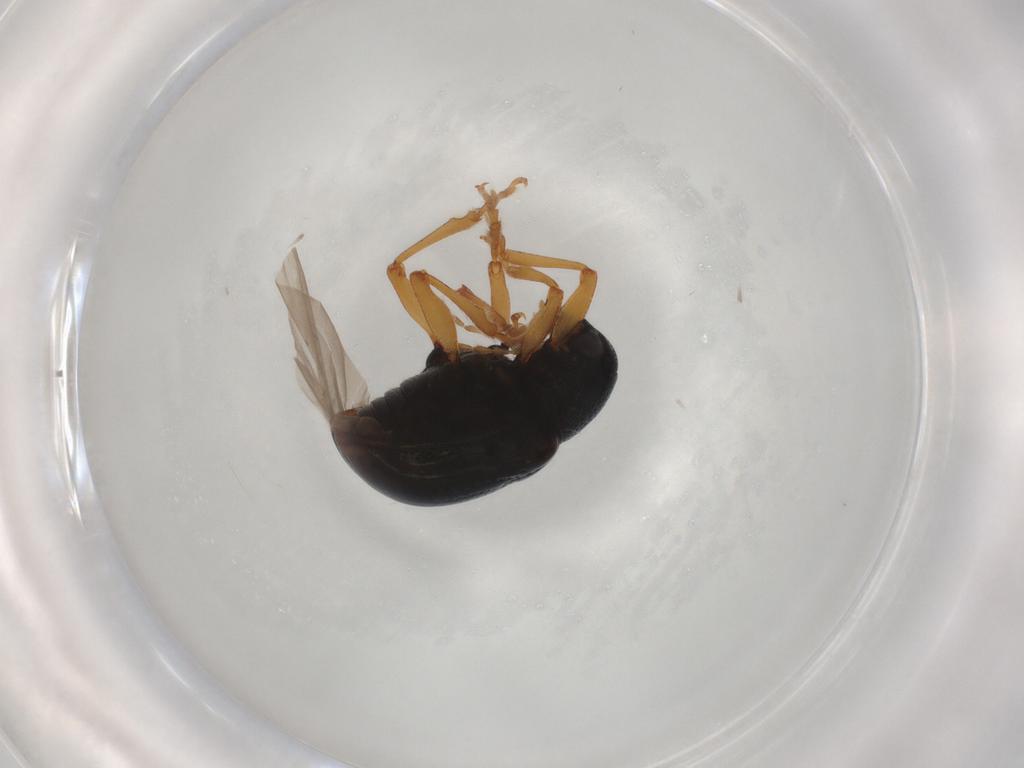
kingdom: Animalia
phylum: Arthropoda
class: Insecta
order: Coleoptera
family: Chrysomelidae
